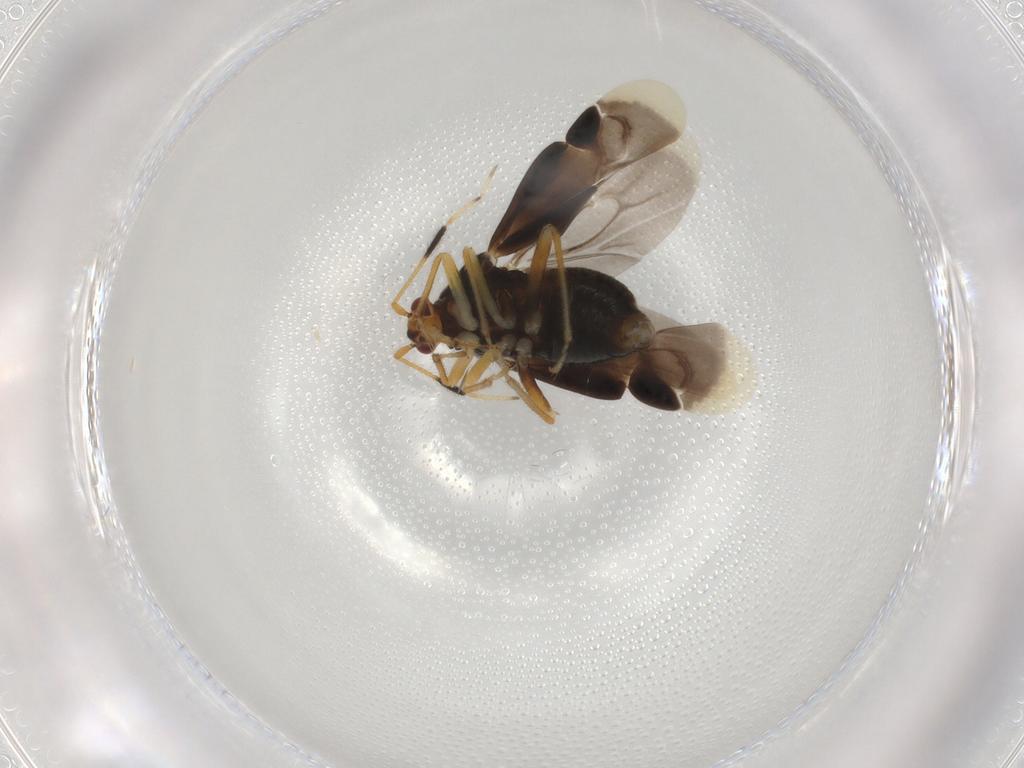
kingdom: Animalia
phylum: Arthropoda
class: Insecta
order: Hemiptera
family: Miridae
